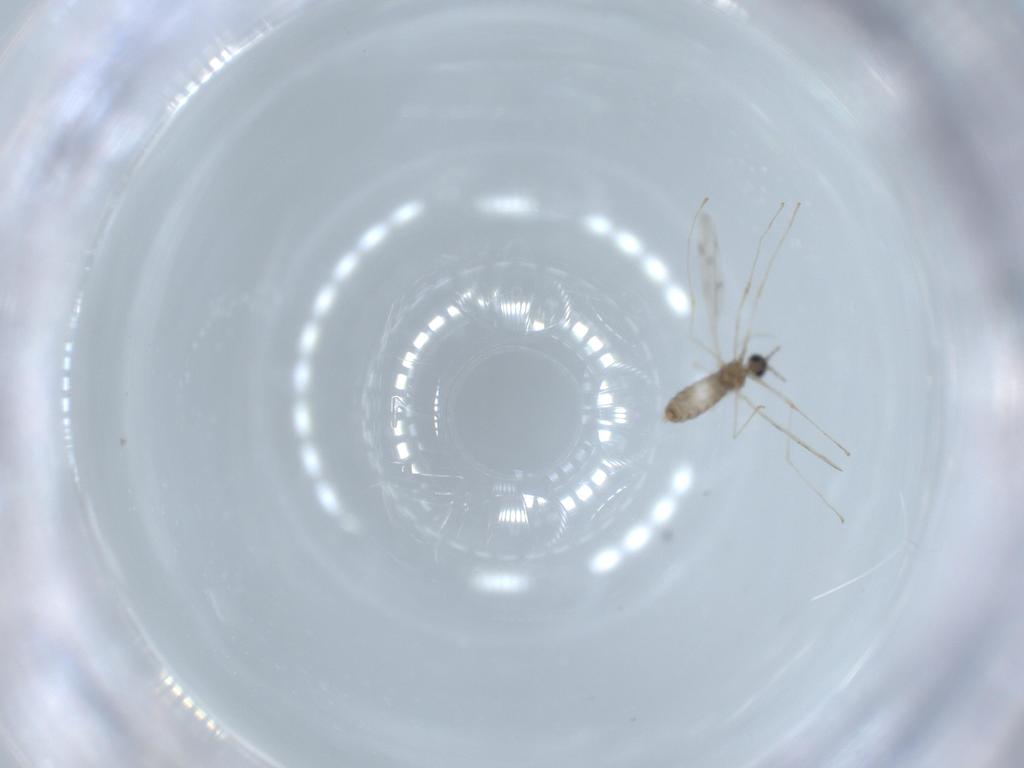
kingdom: Animalia
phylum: Arthropoda
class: Insecta
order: Diptera
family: Cecidomyiidae
